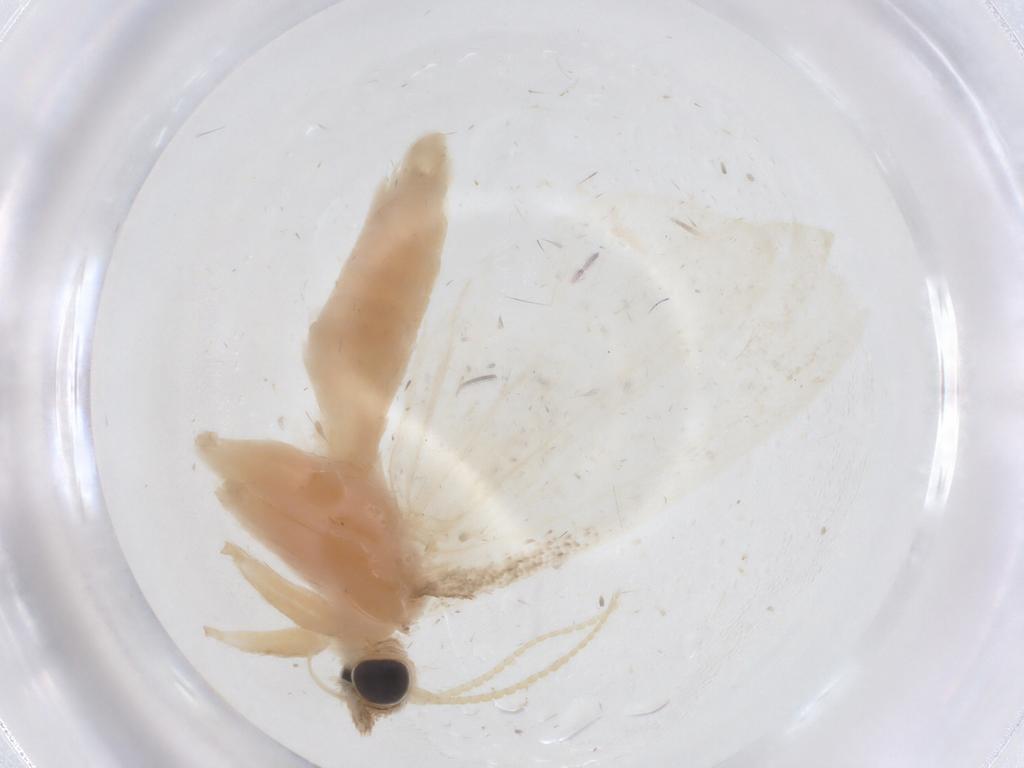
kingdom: Animalia
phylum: Arthropoda
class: Insecta
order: Lepidoptera
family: Crambidae
